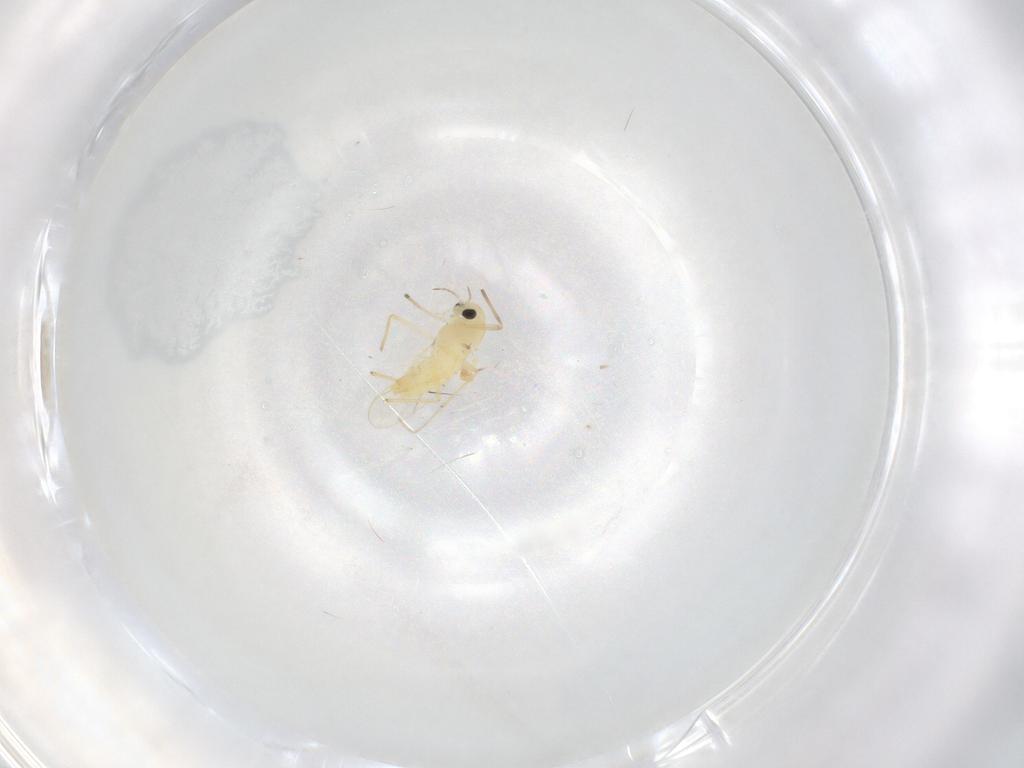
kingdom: Animalia
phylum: Arthropoda
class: Insecta
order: Diptera
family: Chironomidae
